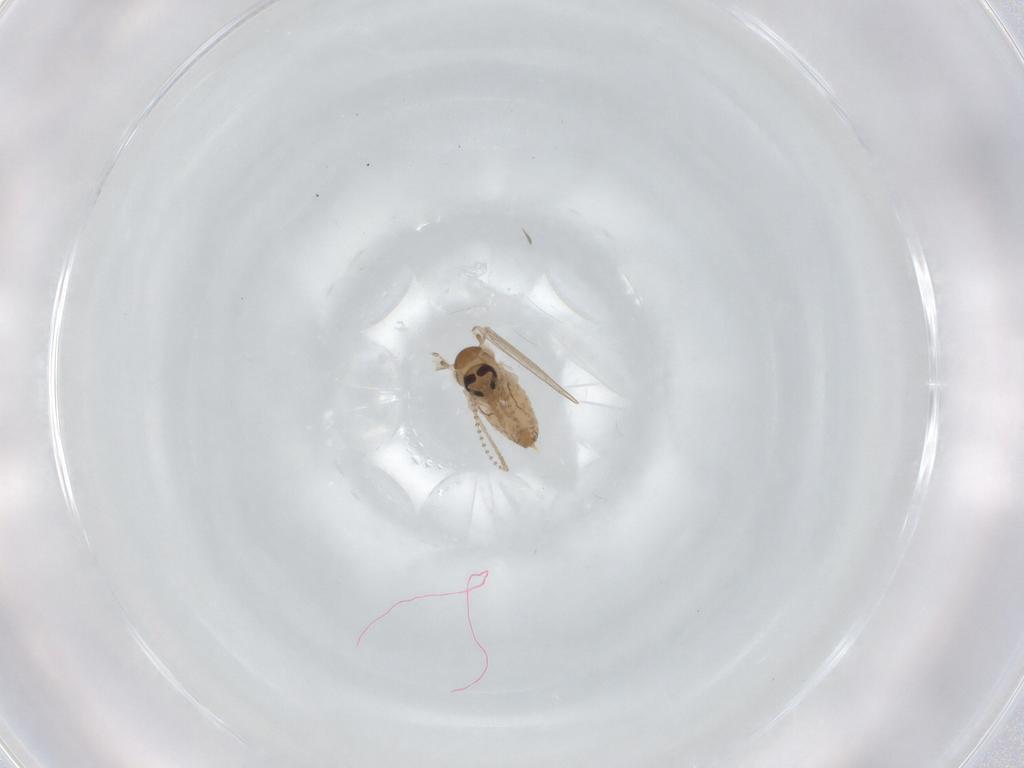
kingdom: Animalia
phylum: Arthropoda
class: Insecta
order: Diptera
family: Psychodidae
